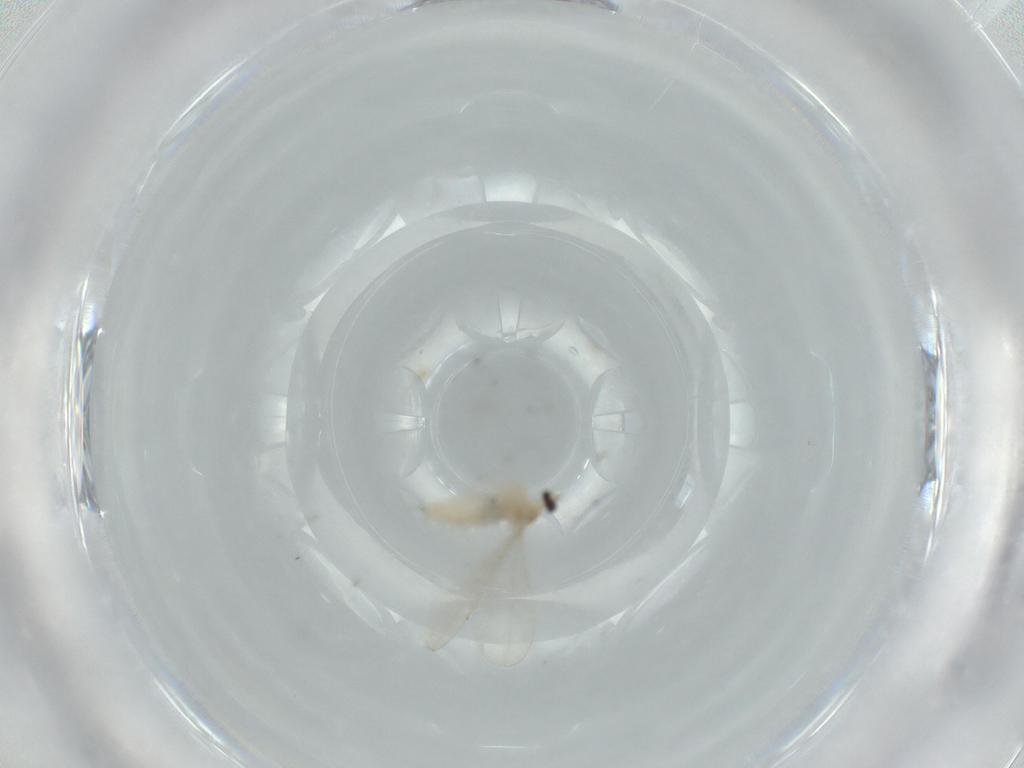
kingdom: Animalia
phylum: Arthropoda
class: Insecta
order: Diptera
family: Cecidomyiidae
